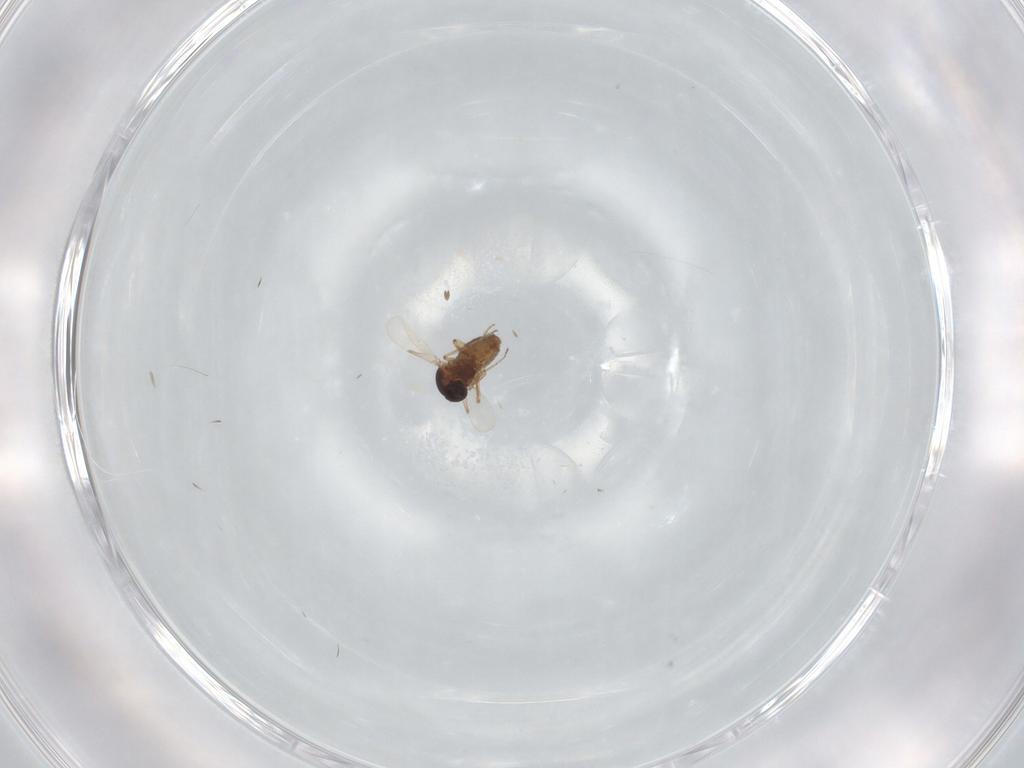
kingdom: Animalia
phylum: Arthropoda
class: Insecta
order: Diptera
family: Ceratopogonidae
